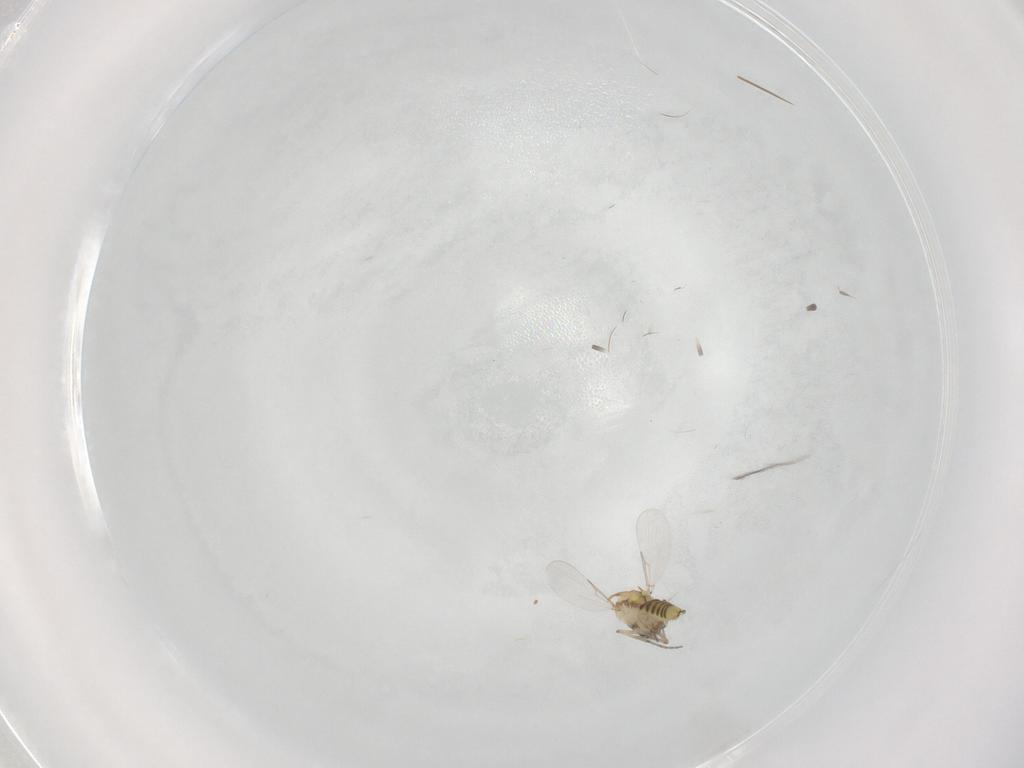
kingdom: Animalia
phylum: Arthropoda
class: Insecta
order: Diptera
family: Ceratopogonidae
